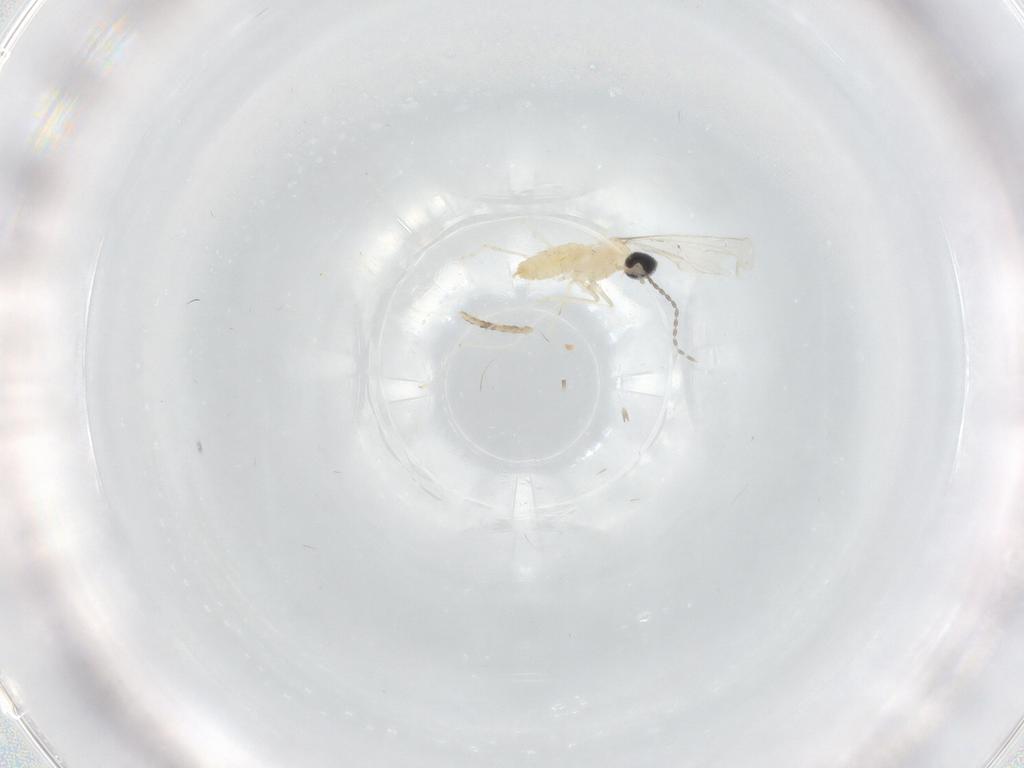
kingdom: Animalia
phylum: Arthropoda
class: Insecta
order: Diptera
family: Cecidomyiidae
